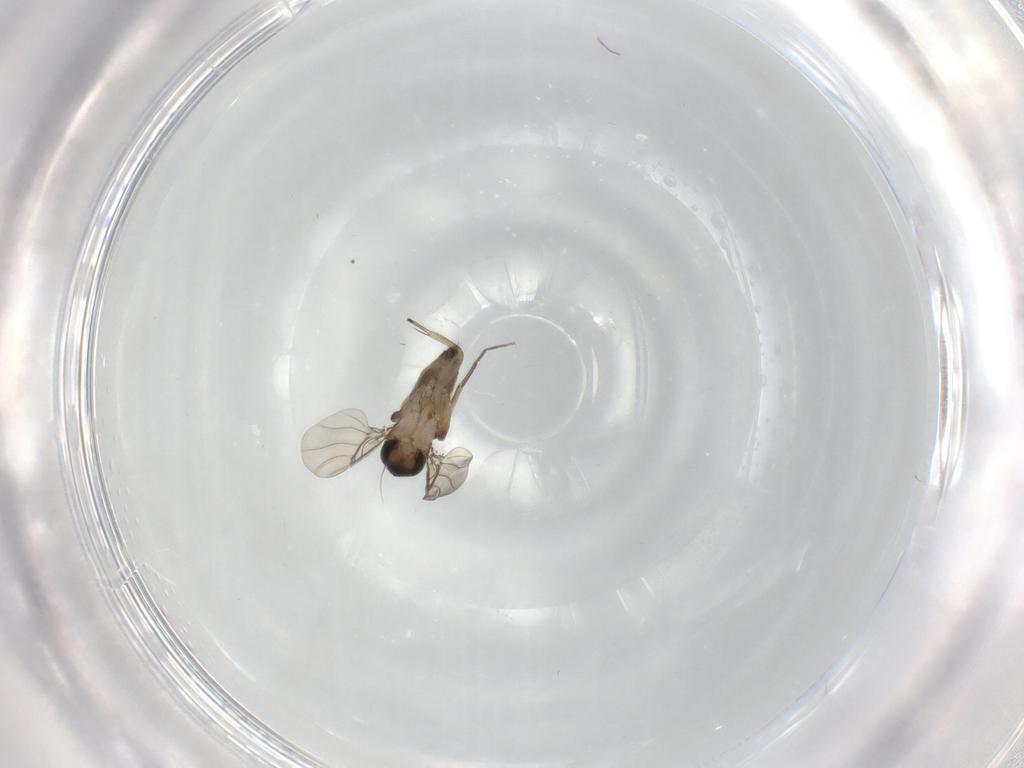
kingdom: Animalia
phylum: Arthropoda
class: Insecta
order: Diptera
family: Phoridae
